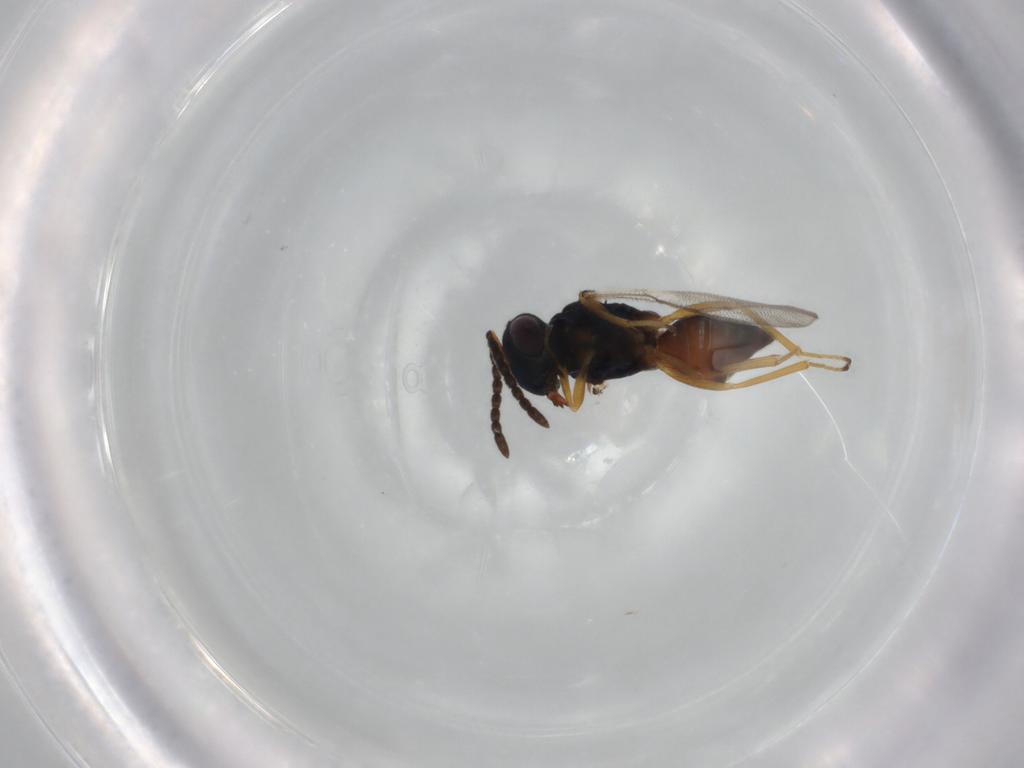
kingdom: Animalia
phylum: Arthropoda
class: Insecta
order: Hymenoptera
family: Pteromalidae
